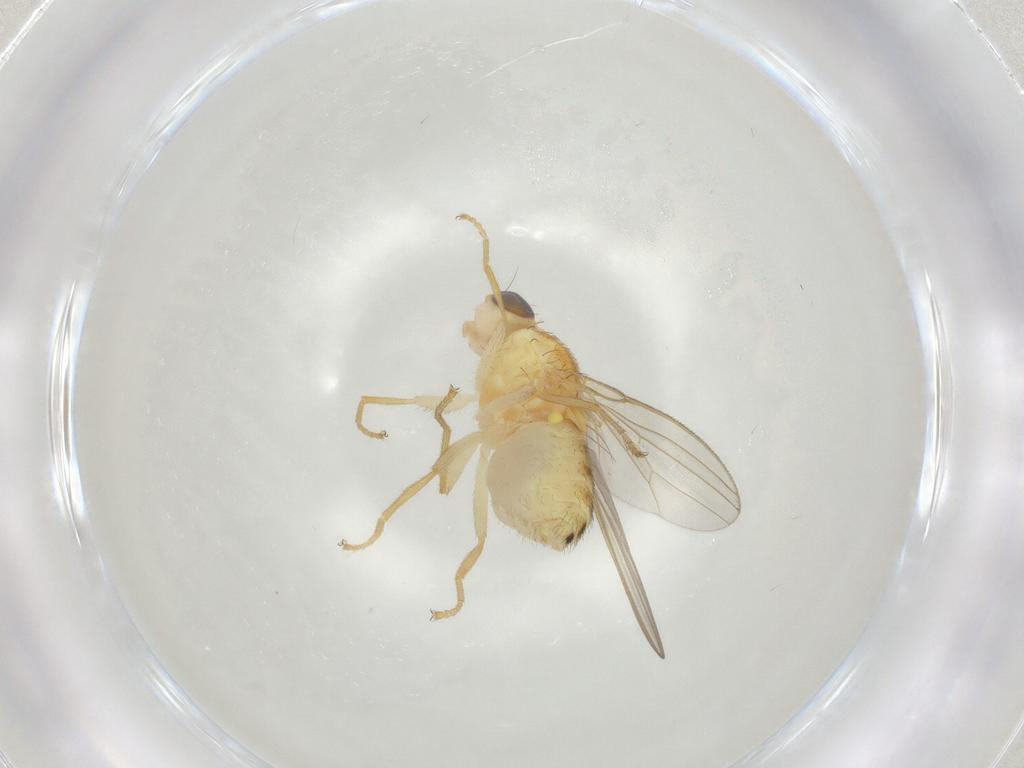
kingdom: Animalia
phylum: Arthropoda
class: Insecta
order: Diptera
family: Chyromyidae
